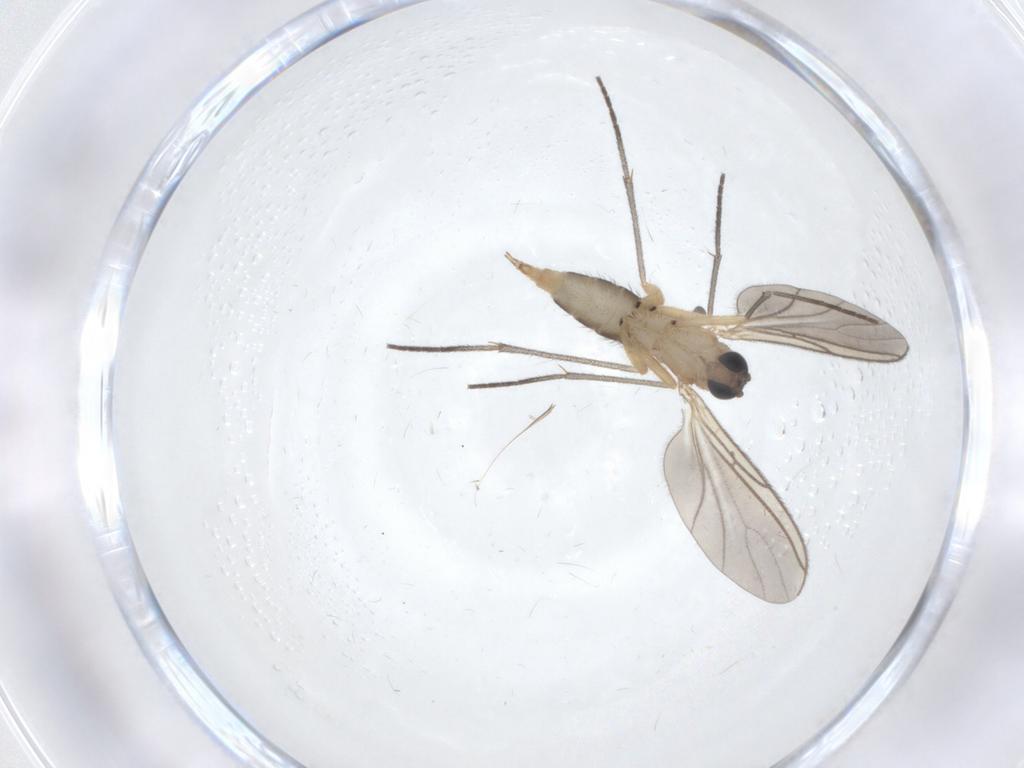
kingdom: Animalia
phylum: Arthropoda
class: Insecta
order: Diptera
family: Sciaridae
